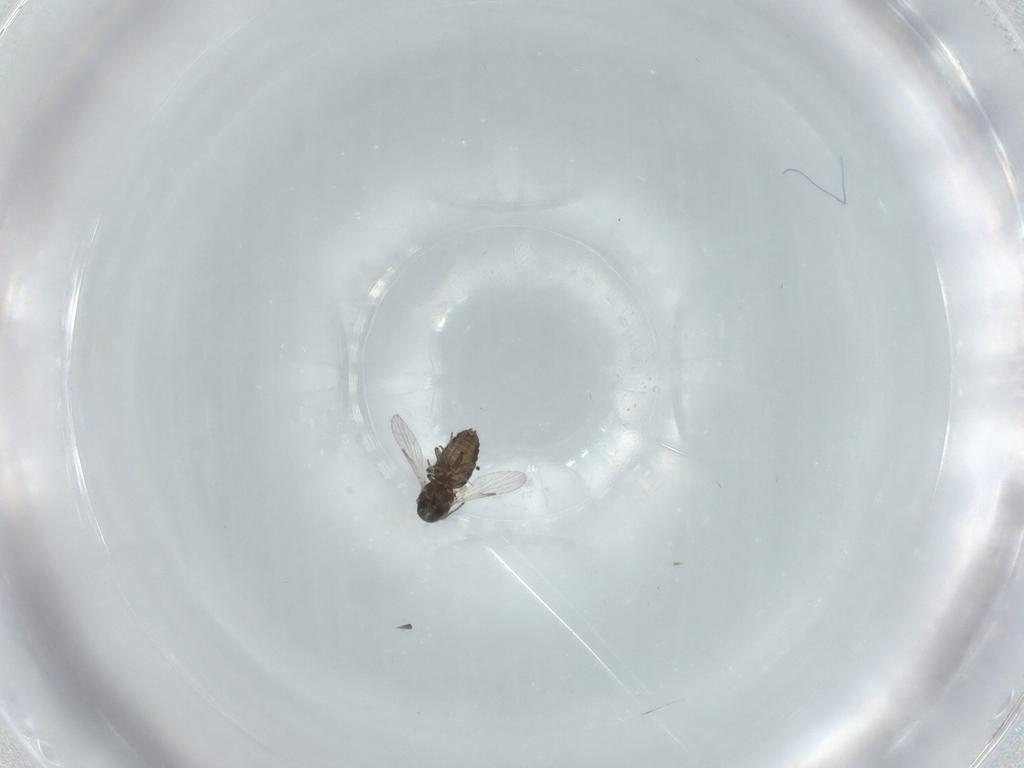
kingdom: Animalia
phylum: Arthropoda
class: Insecta
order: Diptera
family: Ceratopogonidae
